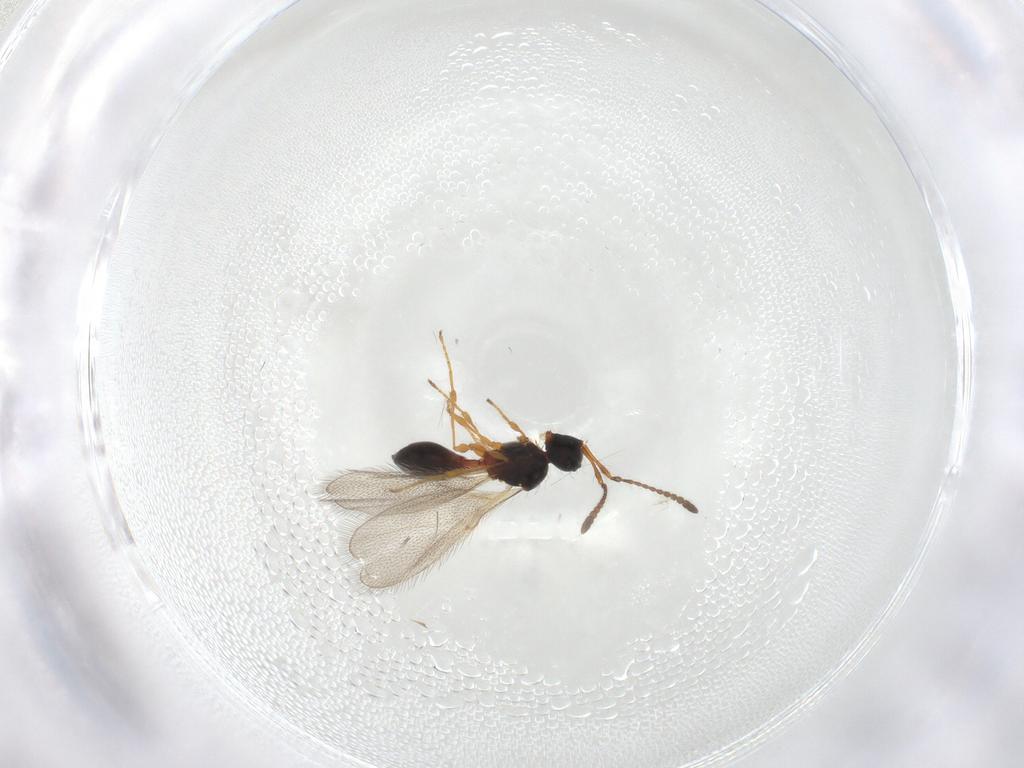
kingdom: Animalia
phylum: Arthropoda
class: Insecta
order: Hymenoptera
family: Diapriidae
